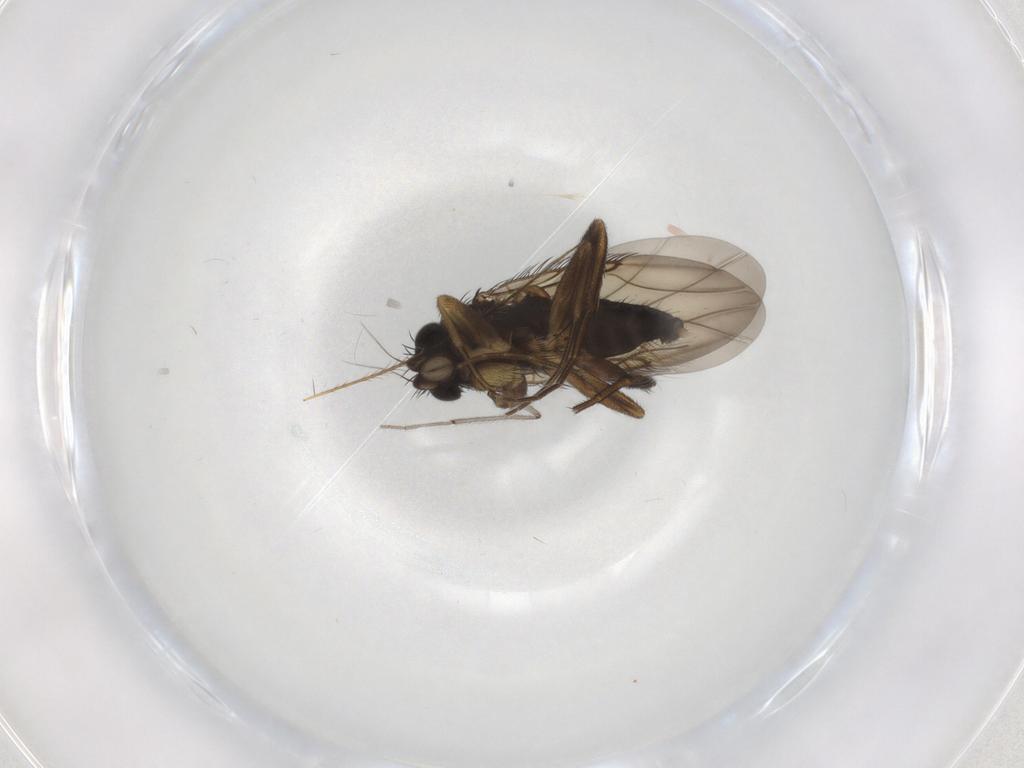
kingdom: Animalia
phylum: Arthropoda
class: Insecta
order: Diptera
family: Phoridae
